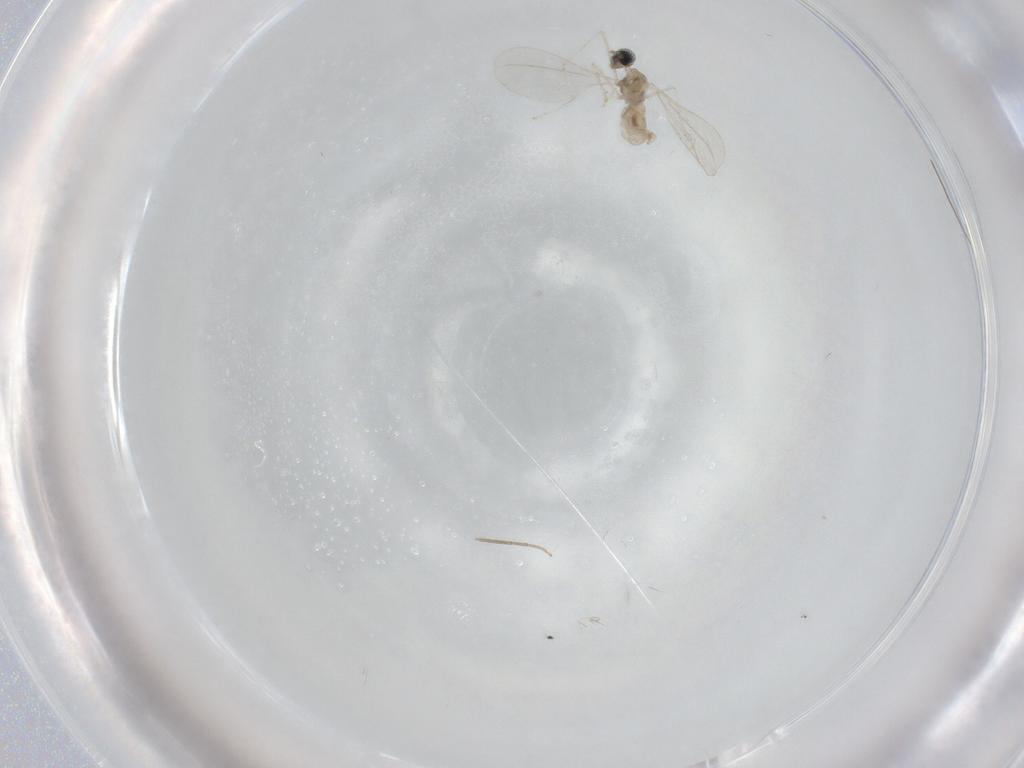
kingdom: Animalia
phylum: Arthropoda
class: Insecta
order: Diptera
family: Cecidomyiidae
